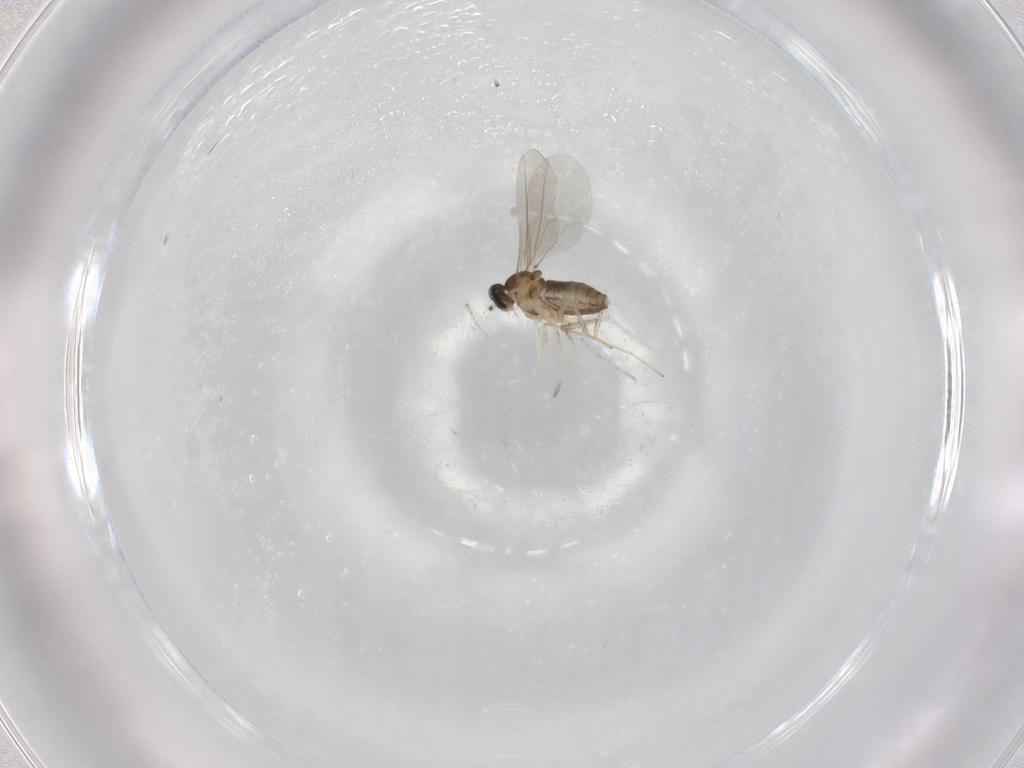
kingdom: Animalia
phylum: Arthropoda
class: Insecta
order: Diptera
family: Cecidomyiidae
